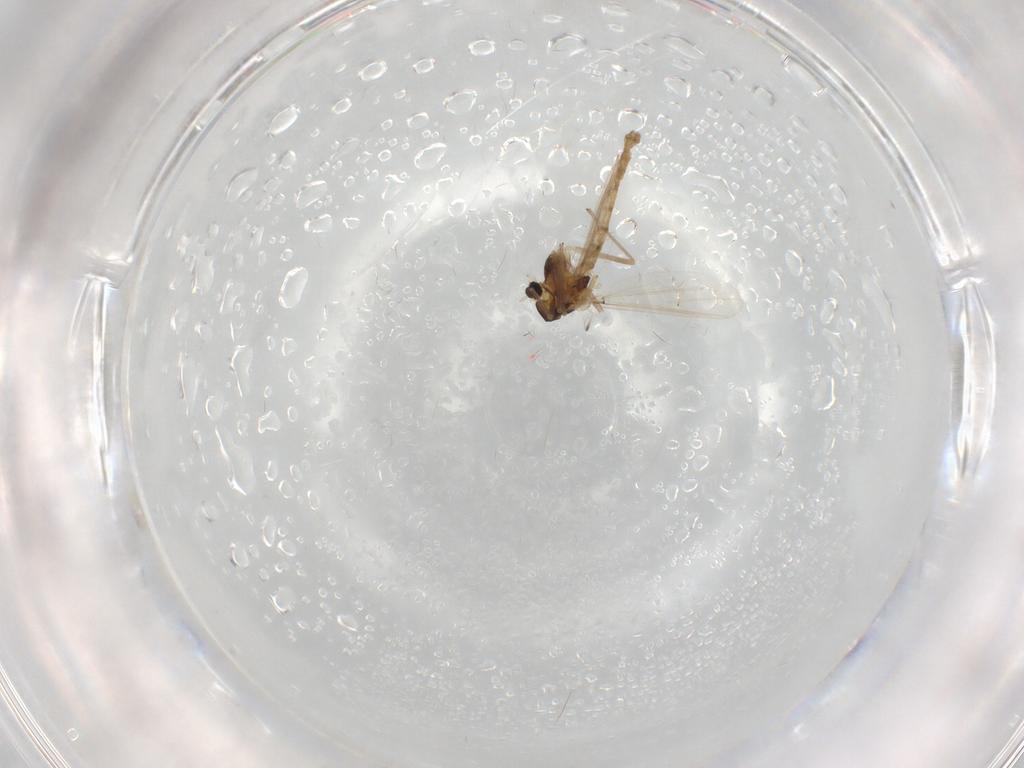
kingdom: Animalia
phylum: Arthropoda
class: Insecta
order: Diptera
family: Chironomidae
